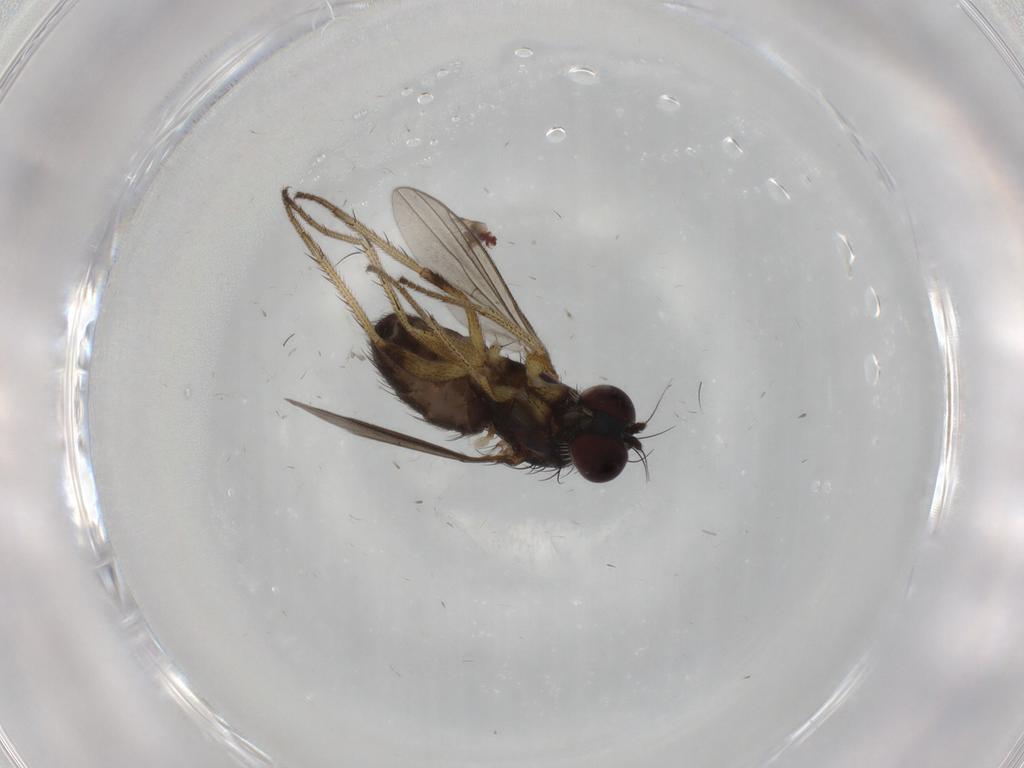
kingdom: Animalia
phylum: Arthropoda
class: Insecta
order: Diptera
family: Dolichopodidae
